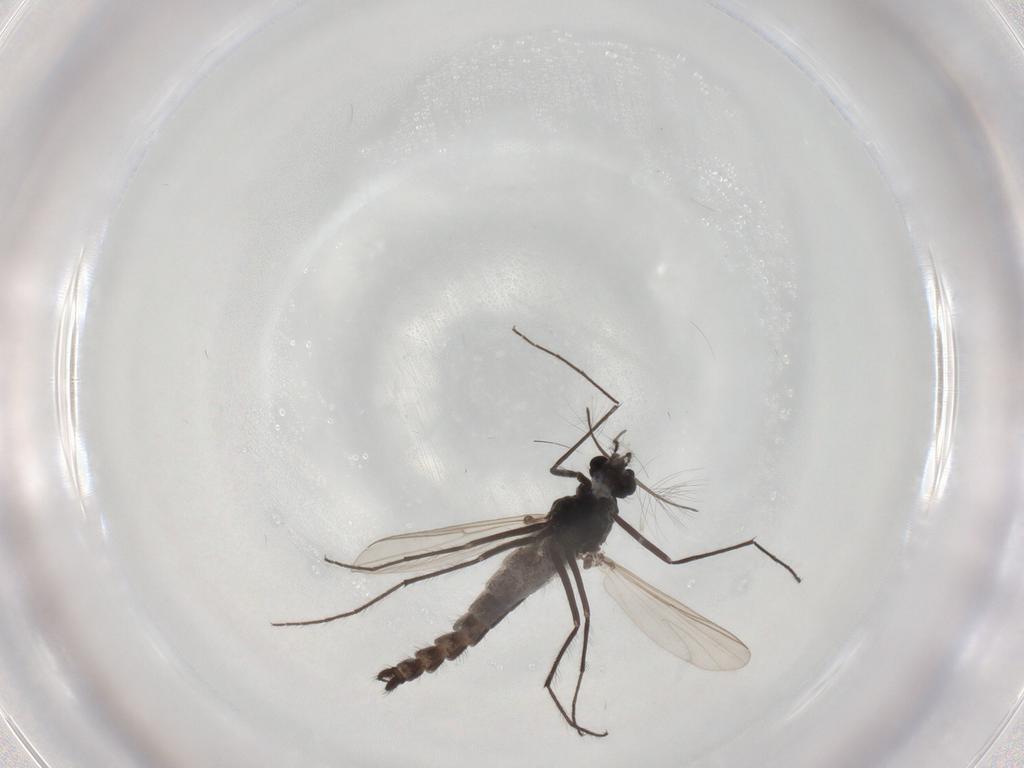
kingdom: Animalia
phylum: Arthropoda
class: Insecta
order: Diptera
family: Muscidae
